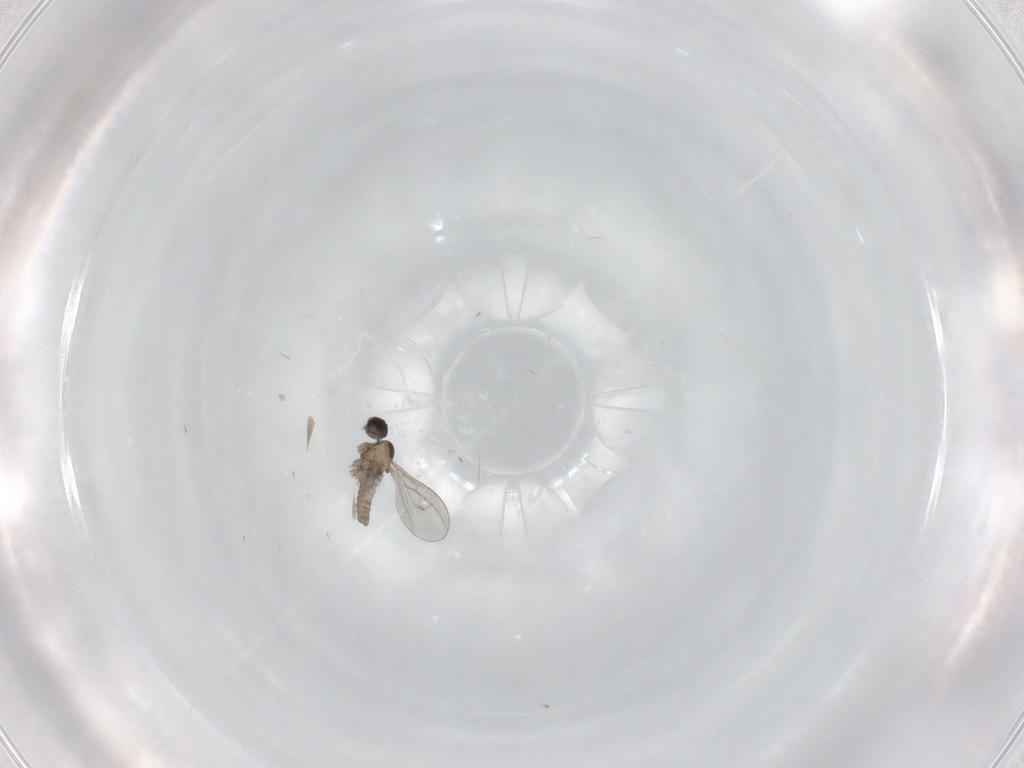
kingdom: Animalia
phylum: Arthropoda
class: Insecta
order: Diptera
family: Cecidomyiidae
